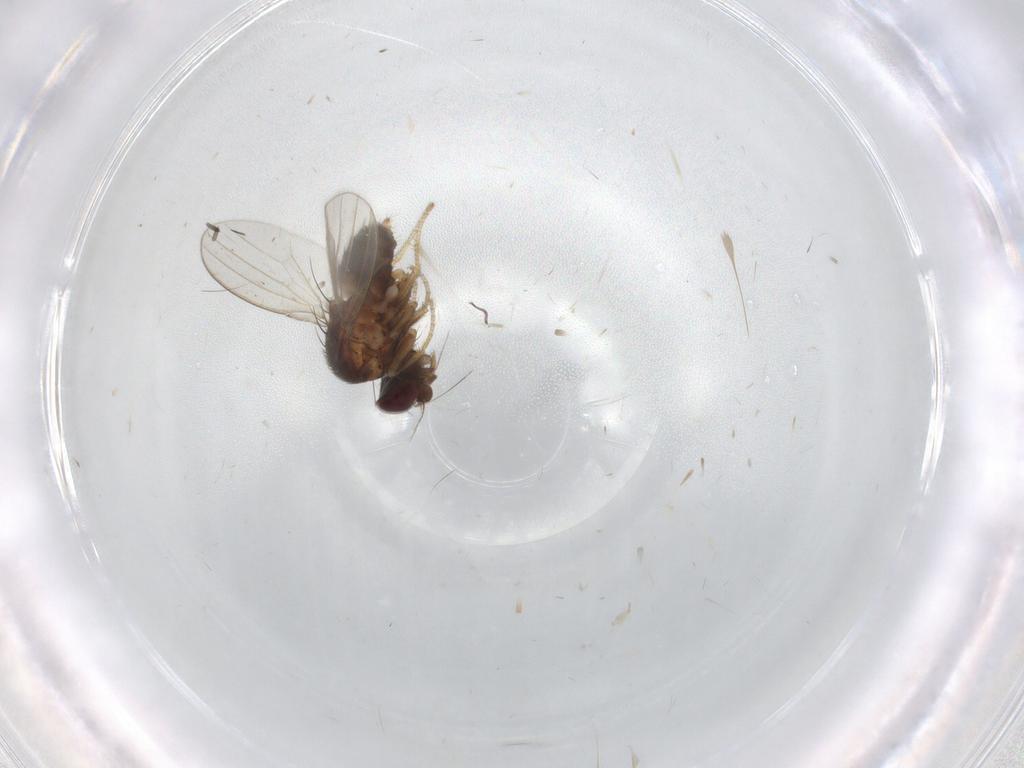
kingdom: Animalia
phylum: Arthropoda
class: Insecta
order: Diptera
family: Milichiidae
